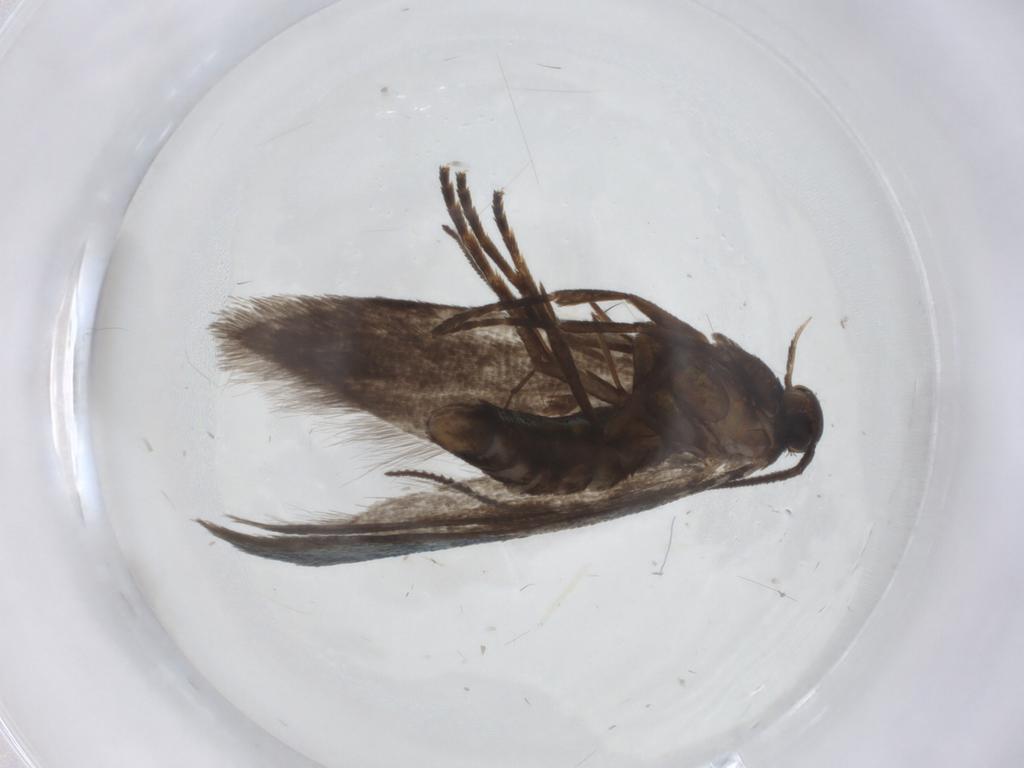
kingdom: Animalia
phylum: Arthropoda
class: Insecta
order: Lepidoptera
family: Argyresthiidae
